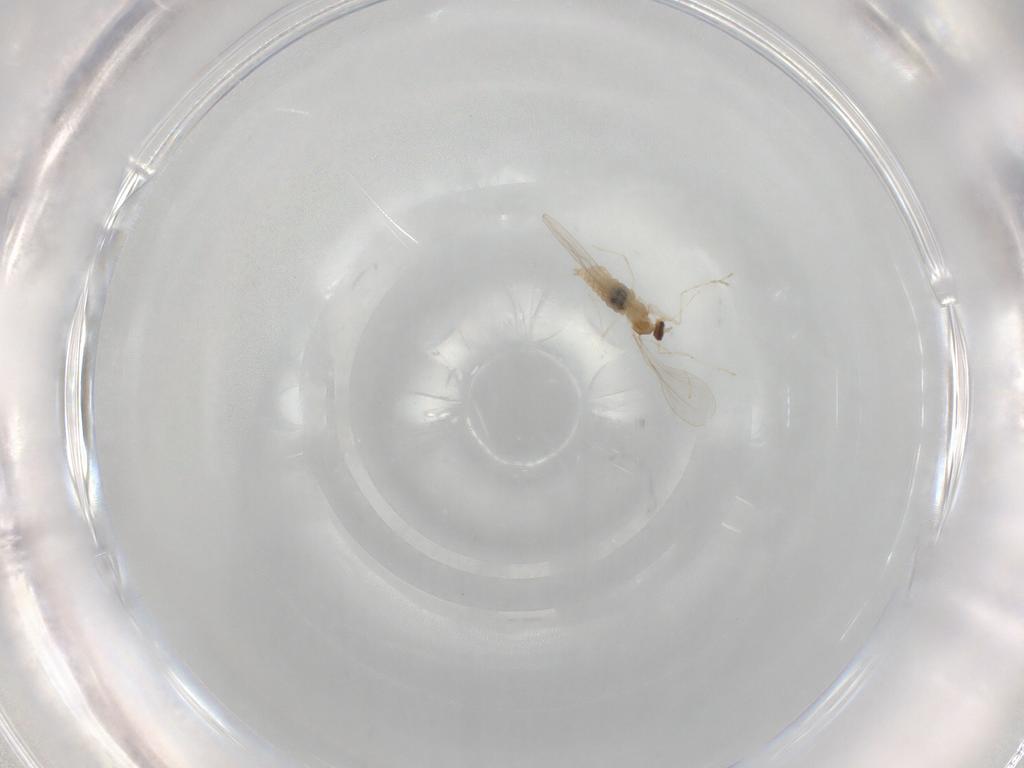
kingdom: Animalia
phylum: Arthropoda
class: Insecta
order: Diptera
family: Cecidomyiidae
